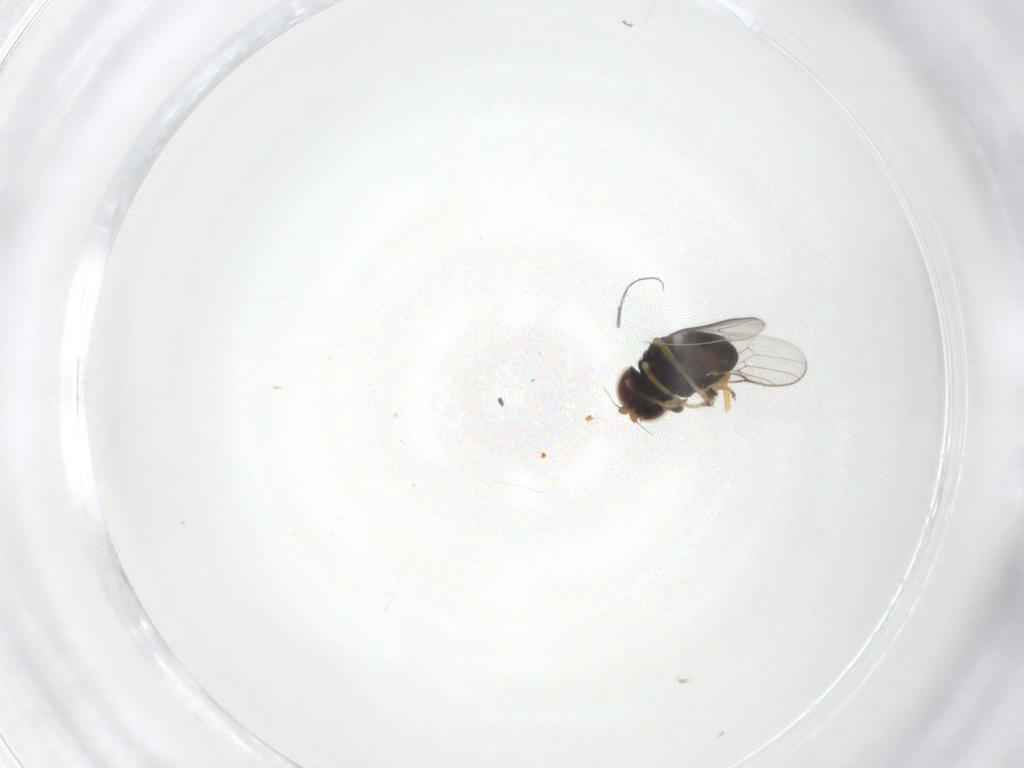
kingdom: Animalia
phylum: Arthropoda
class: Insecta
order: Diptera
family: Chloropidae
